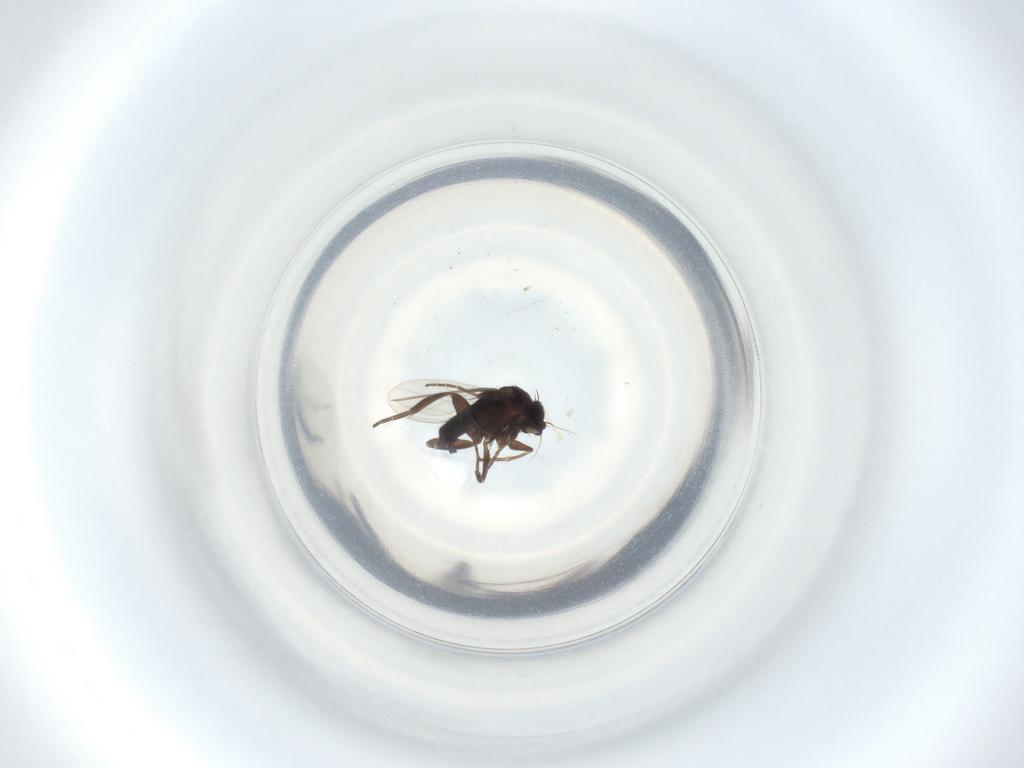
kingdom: Animalia
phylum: Arthropoda
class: Insecta
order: Diptera
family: Phoridae
